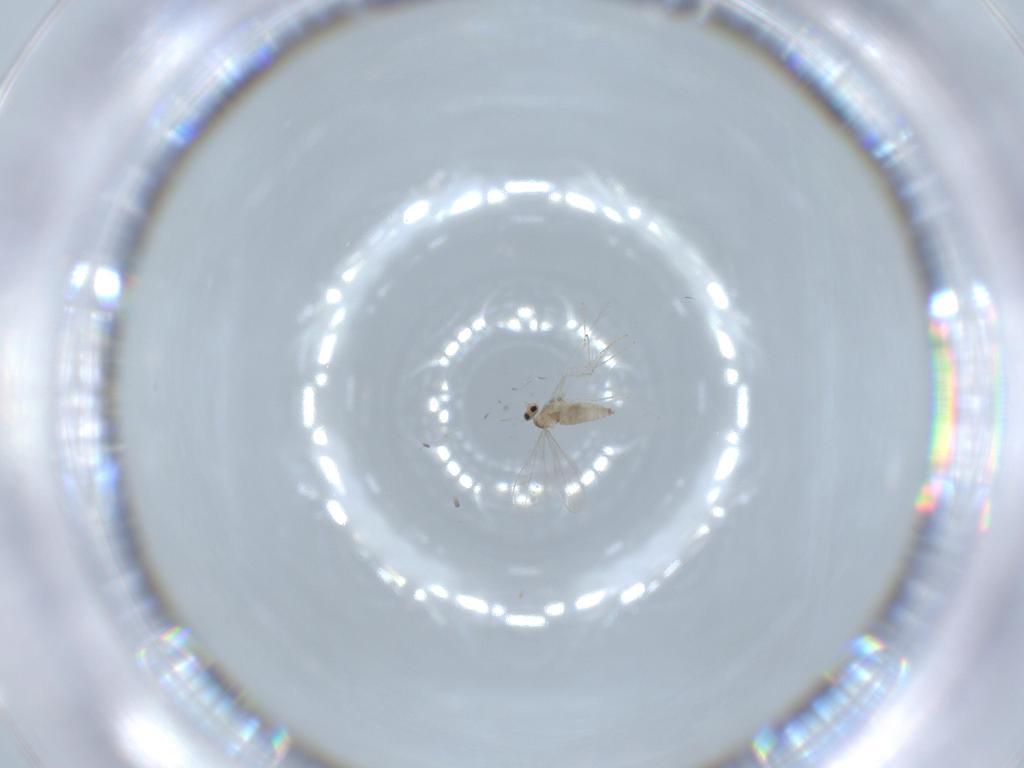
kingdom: Animalia
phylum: Arthropoda
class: Insecta
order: Diptera
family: Cecidomyiidae
